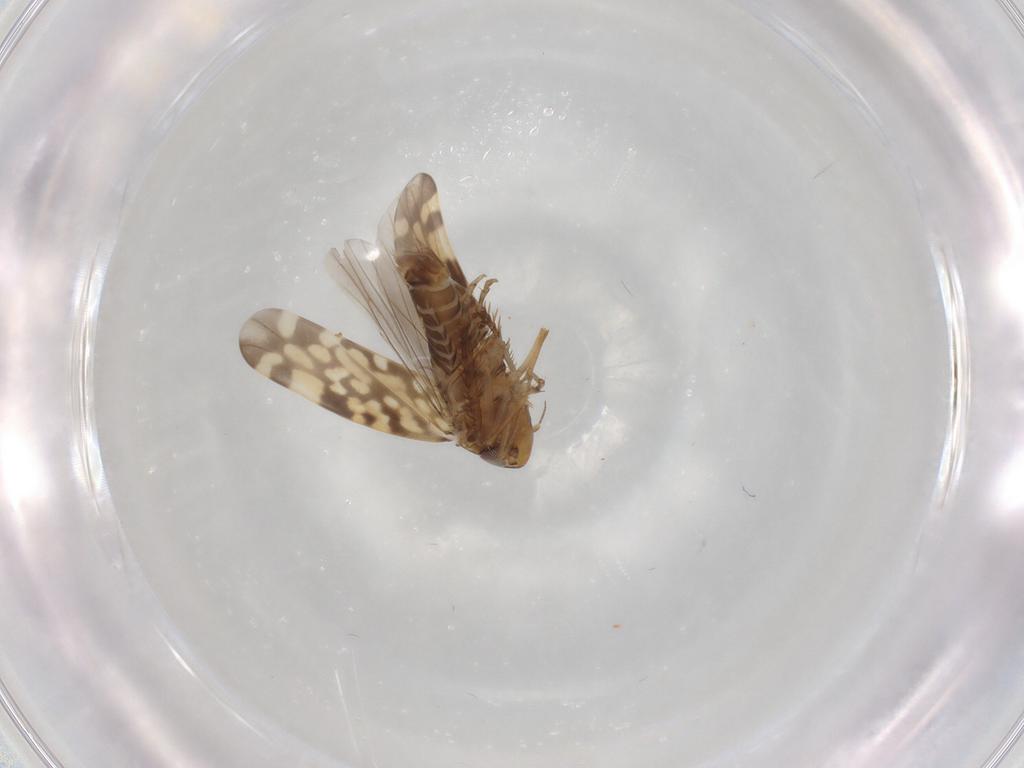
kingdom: Animalia
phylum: Arthropoda
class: Insecta
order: Hemiptera
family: Cicadellidae
